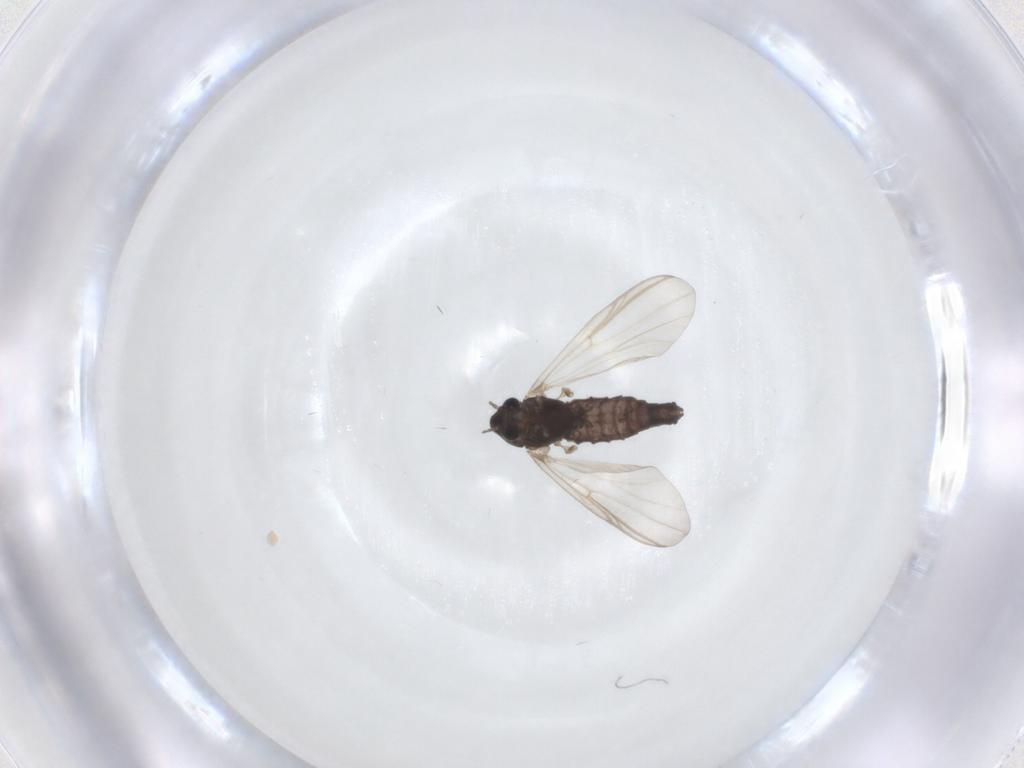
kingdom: Animalia
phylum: Arthropoda
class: Insecta
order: Diptera
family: Chironomidae
